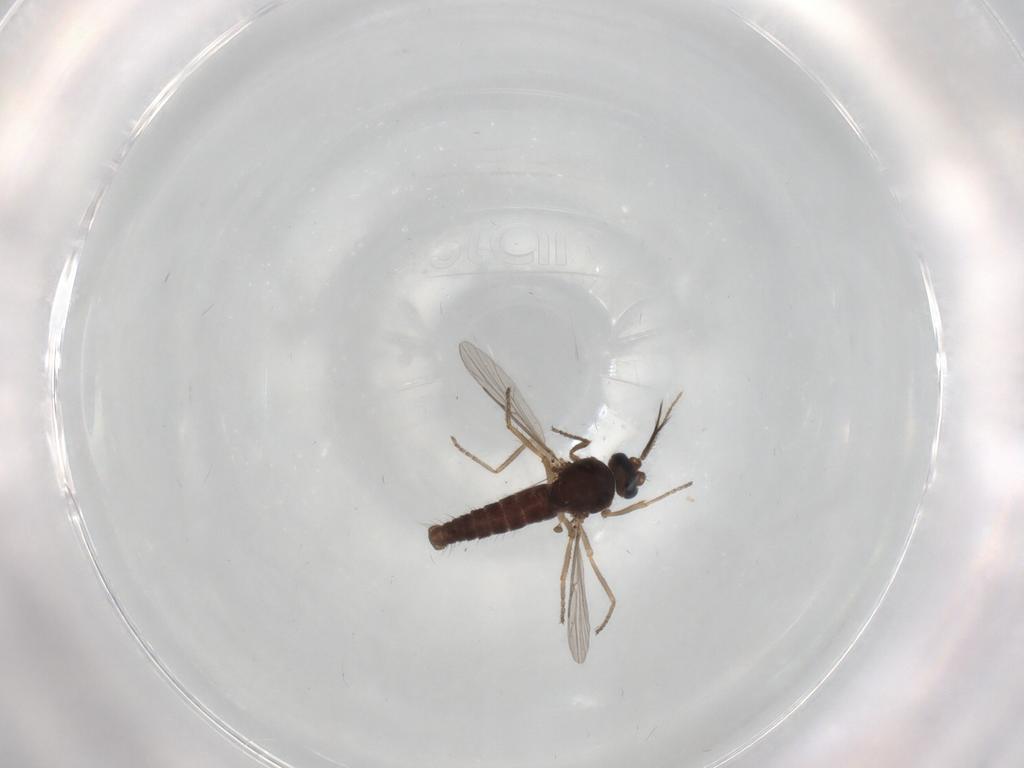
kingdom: Animalia
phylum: Arthropoda
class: Insecta
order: Diptera
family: Ceratopogonidae
